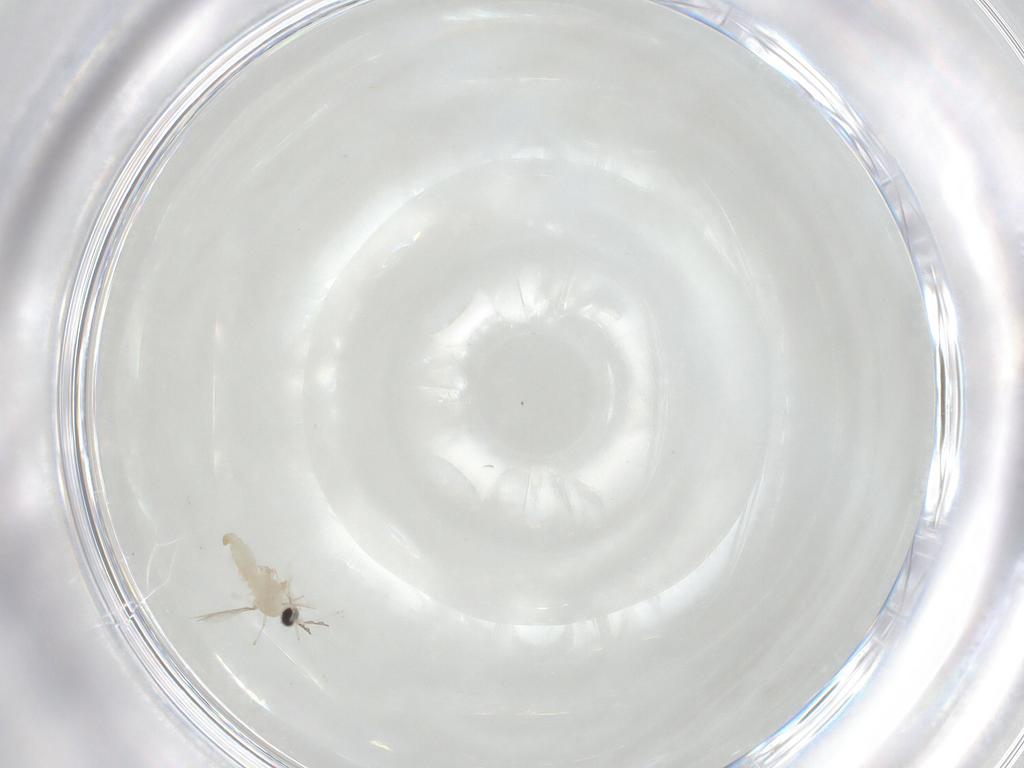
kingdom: Animalia
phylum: Arthropoda
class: Insecta
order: Diptera
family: Cecidomyiidae
